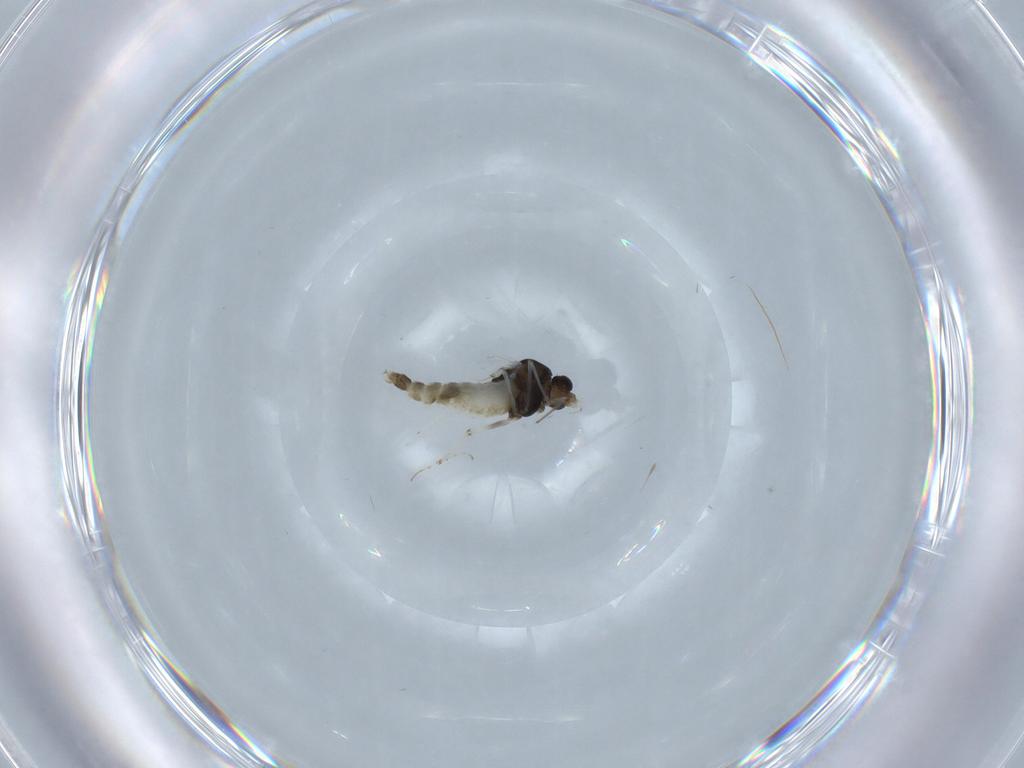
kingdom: Animalia
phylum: Arthropoda
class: Insecta
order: Diptera
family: Chironomidae
